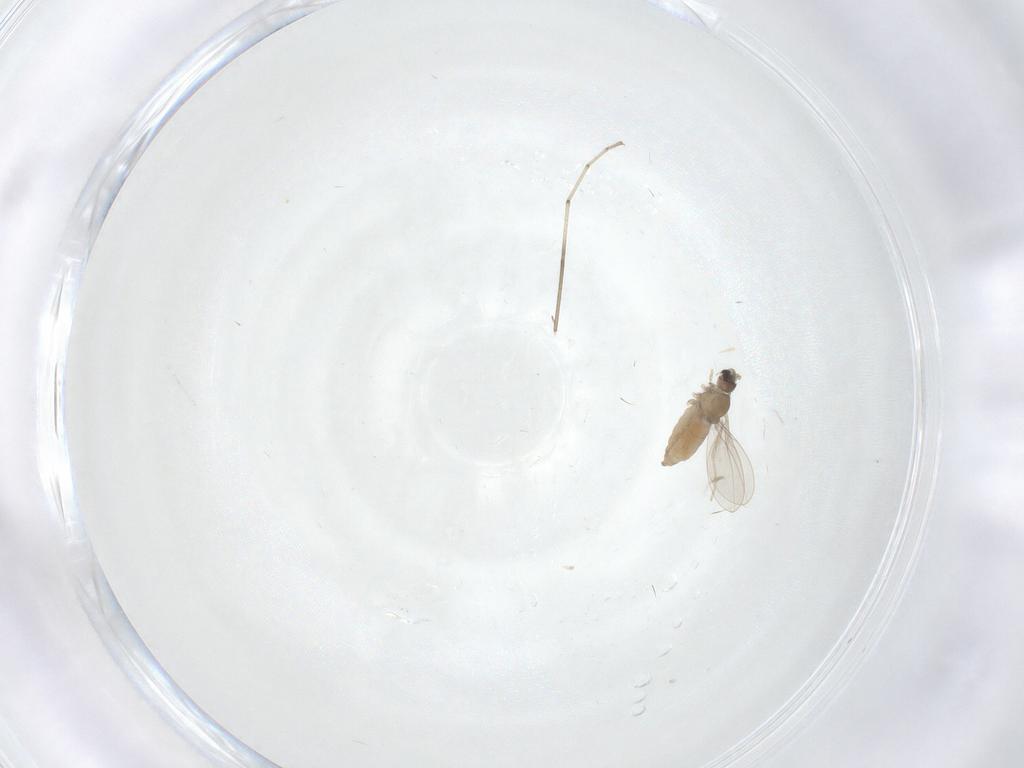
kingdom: Animalia
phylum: Arthropoda
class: Insecta
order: Diptera
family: Cecidomyiidae
